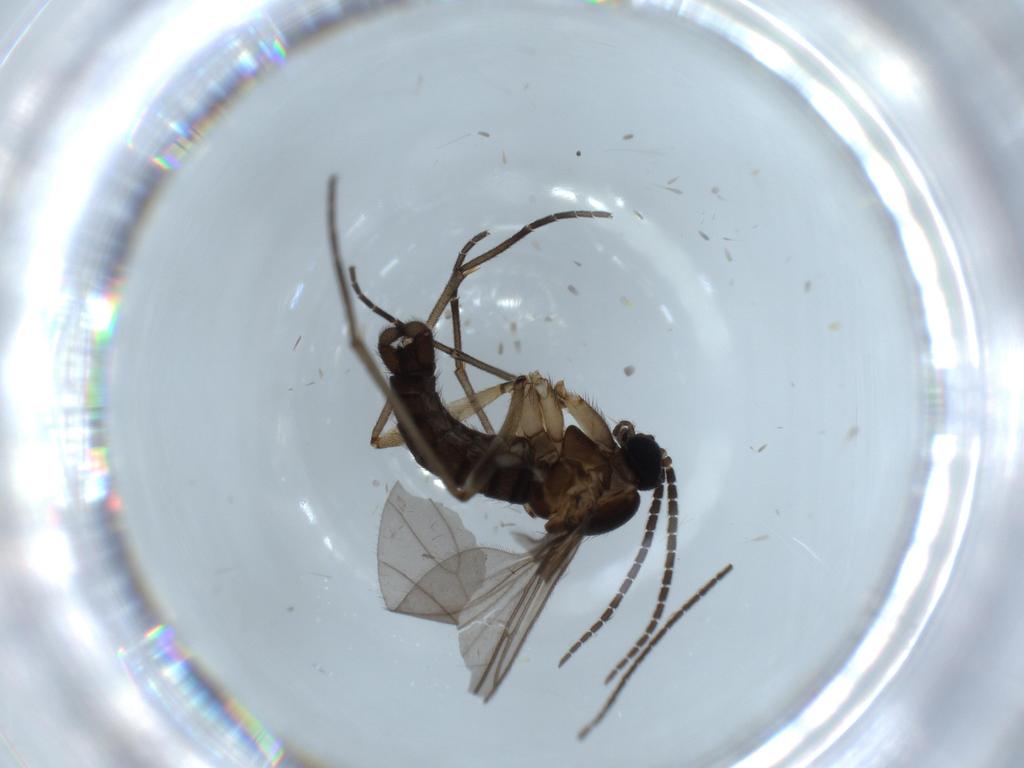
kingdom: Animalia
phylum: Arthropoda
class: Insecta
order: Diptera
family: Sciaridae
